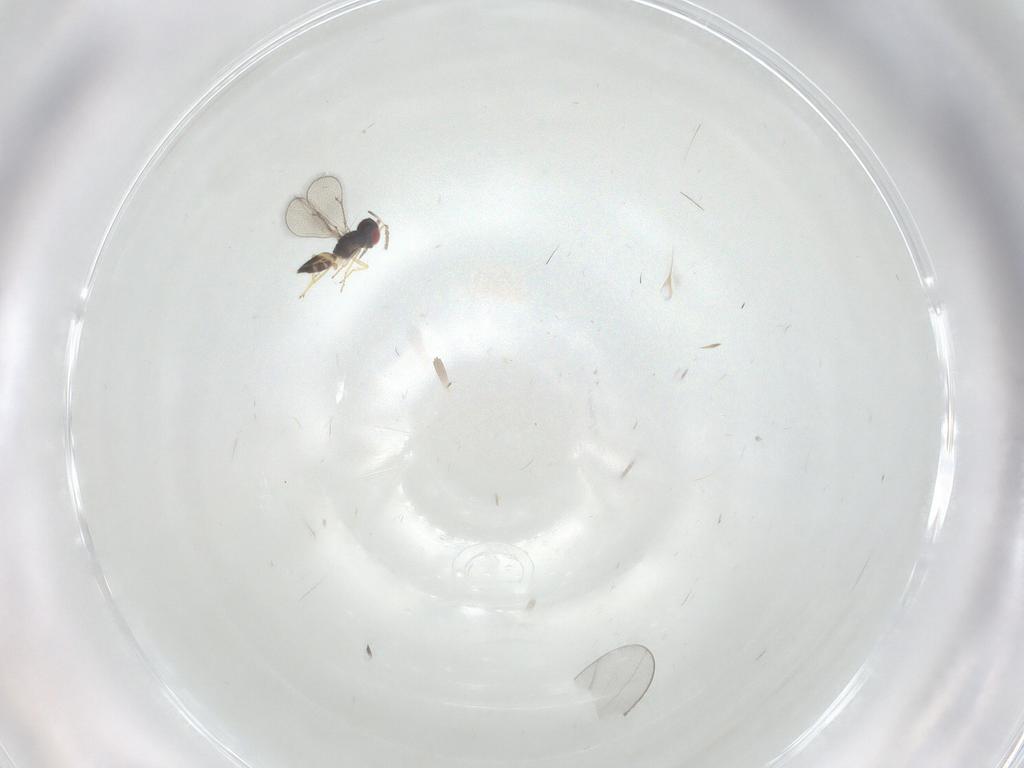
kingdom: Animalia
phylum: Arthropoda
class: Insecta
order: Hymenoptera
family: Eulophidae
